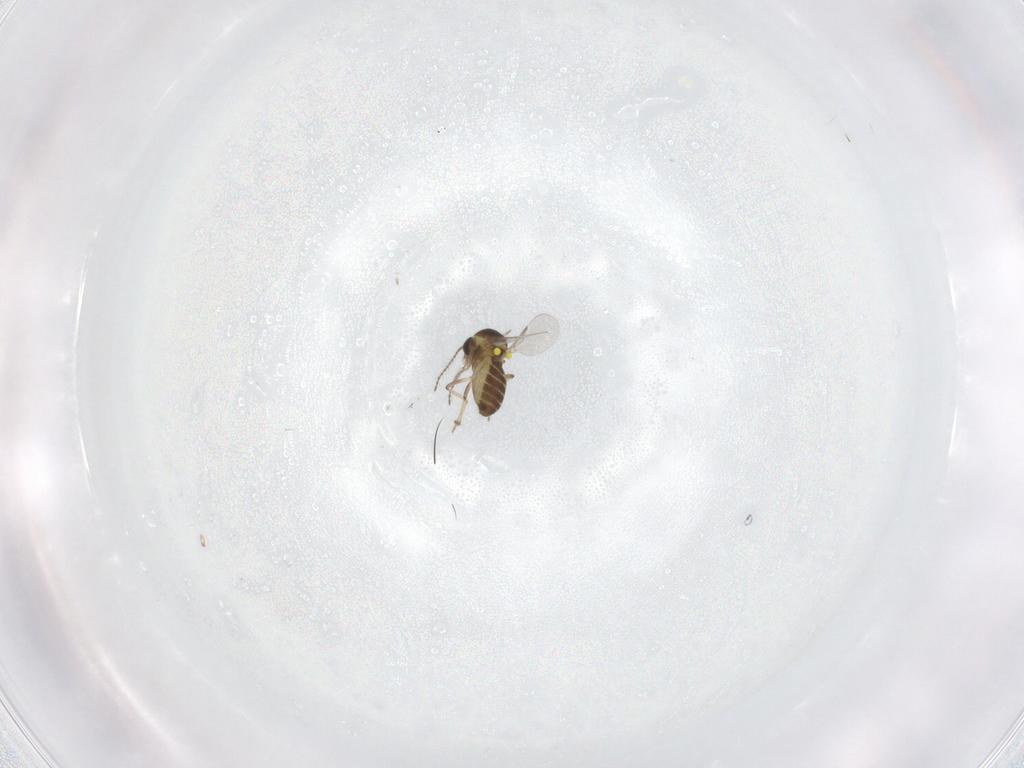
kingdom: Animalia
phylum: Arthropoda
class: Insecta
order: Diptera
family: Ceratopogonidae
